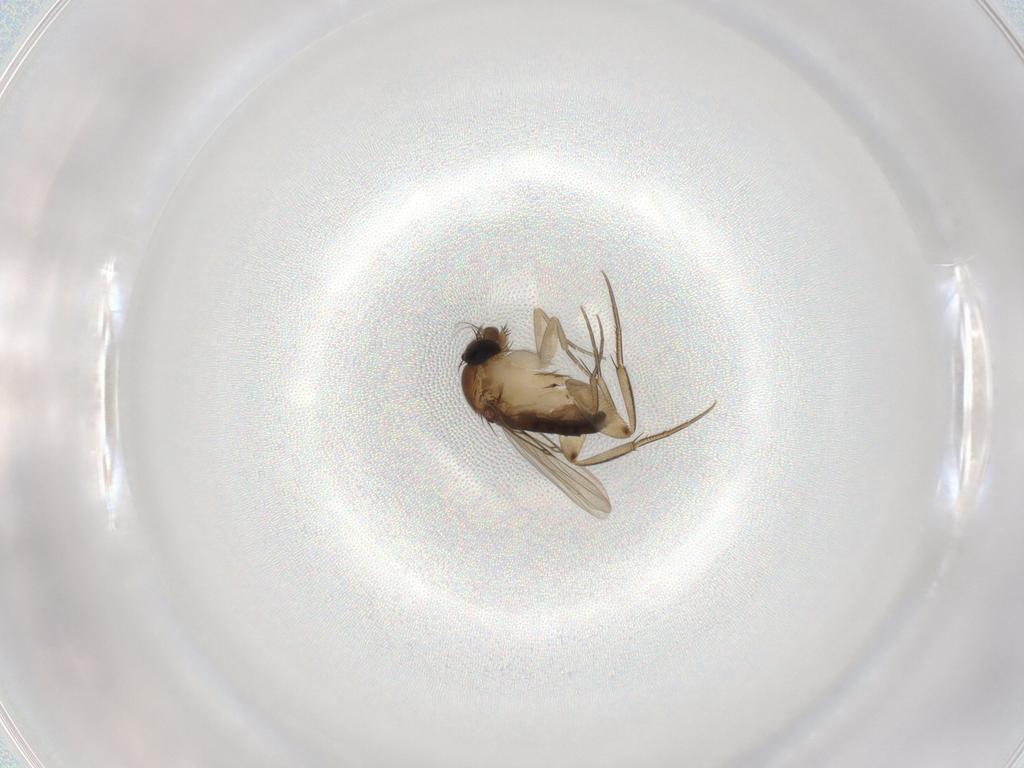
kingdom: Animalia
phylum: Arthropoda
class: Insecta
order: Diptera
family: Phoridae
